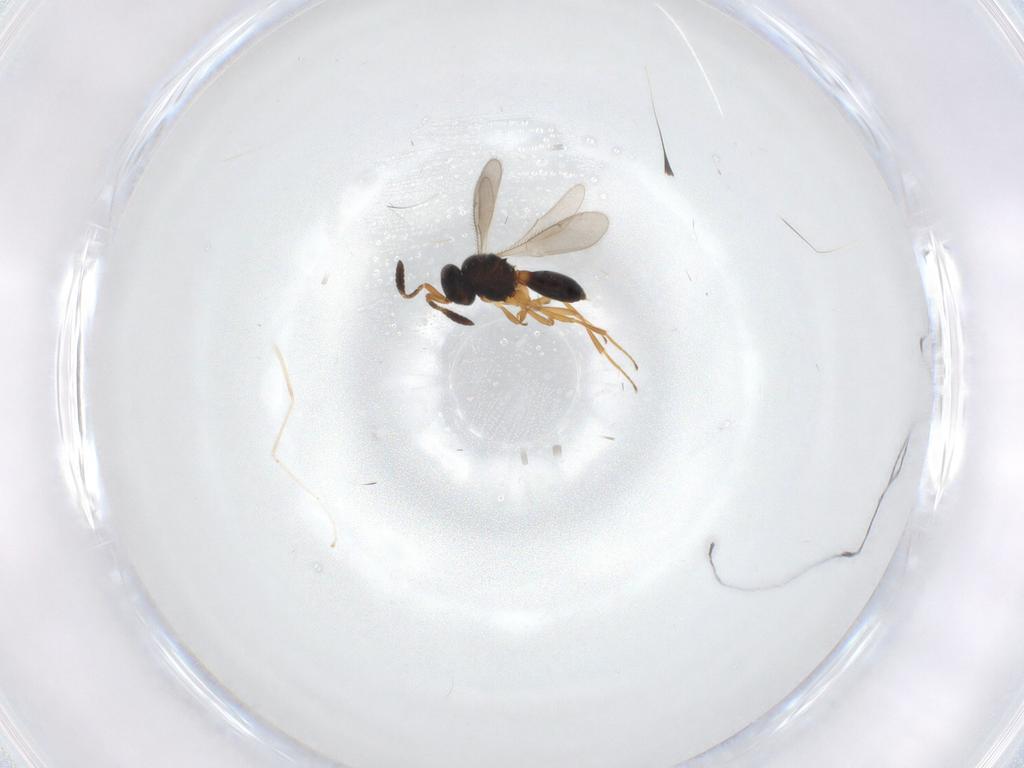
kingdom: Animalia
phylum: Arthropoda
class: Insecta
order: Hymenoptera
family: Scelionidae
